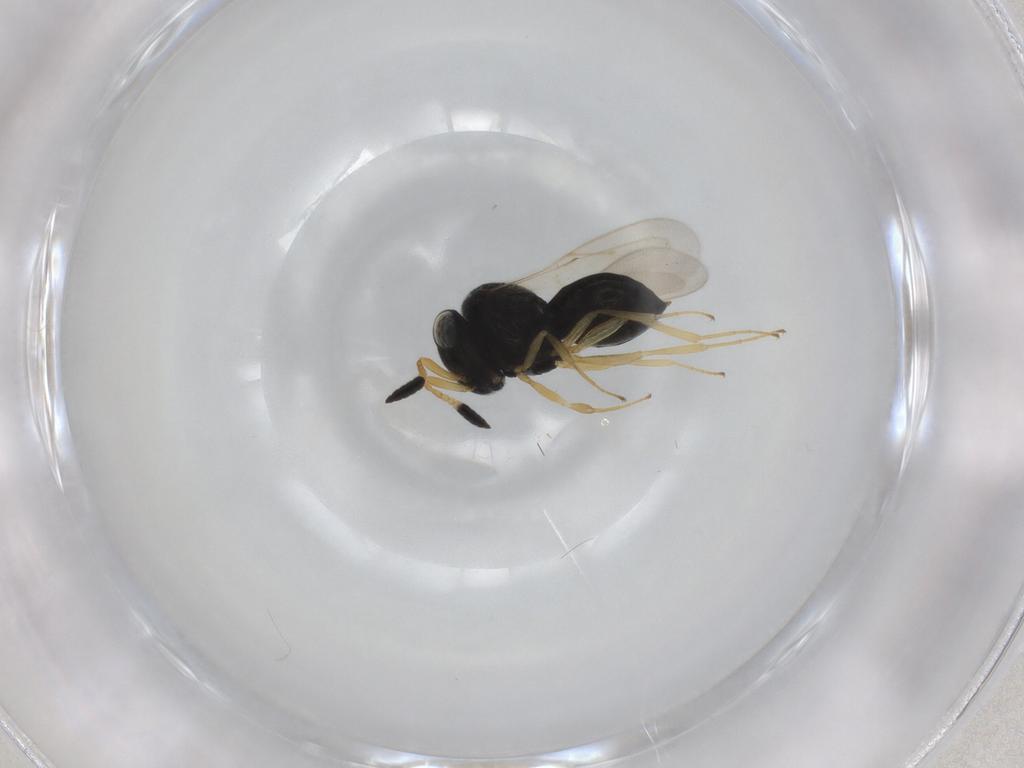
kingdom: Animalia
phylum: Arthropoda
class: Insecta
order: Hymenoptera
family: Scelionidae
